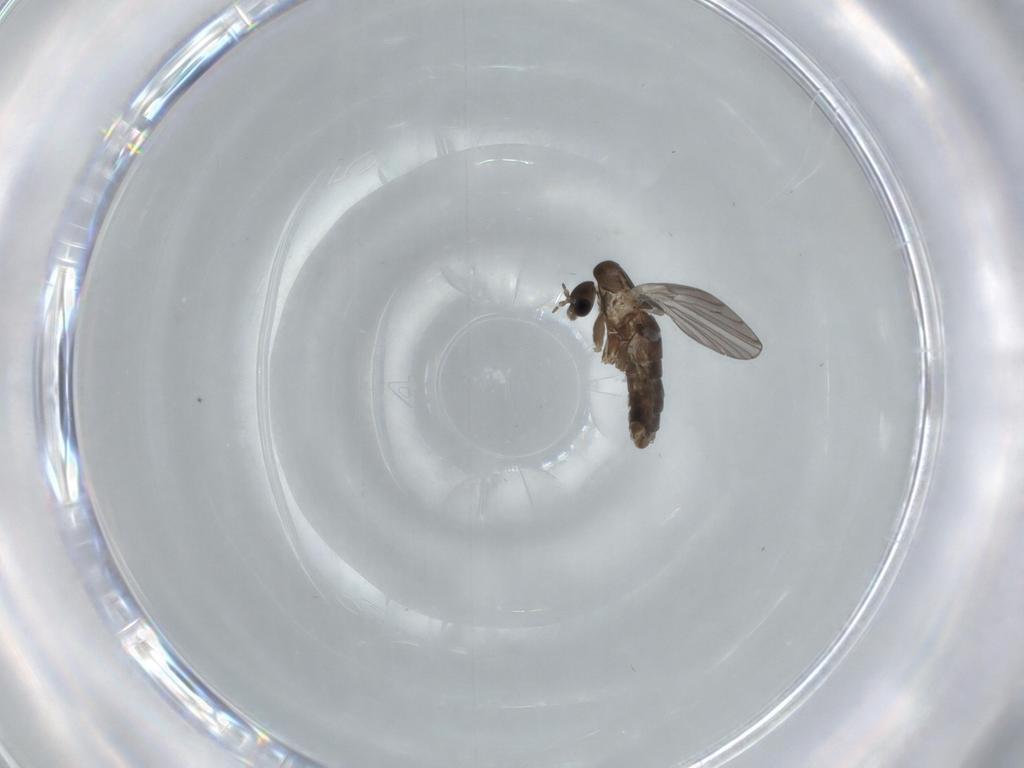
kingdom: Animalia
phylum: Arthropoda
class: Insecta
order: Diptera
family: Psychodidae
